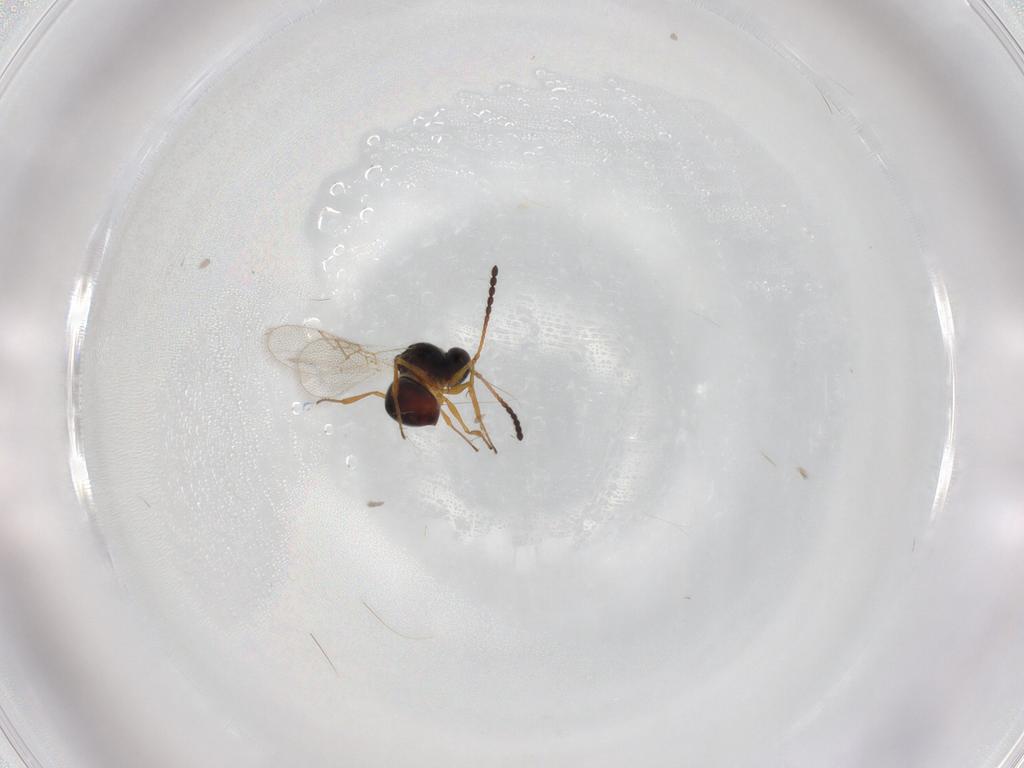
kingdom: Animalia
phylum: Arthropoda
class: Insecta
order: Hymenoptera
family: Figitidae
